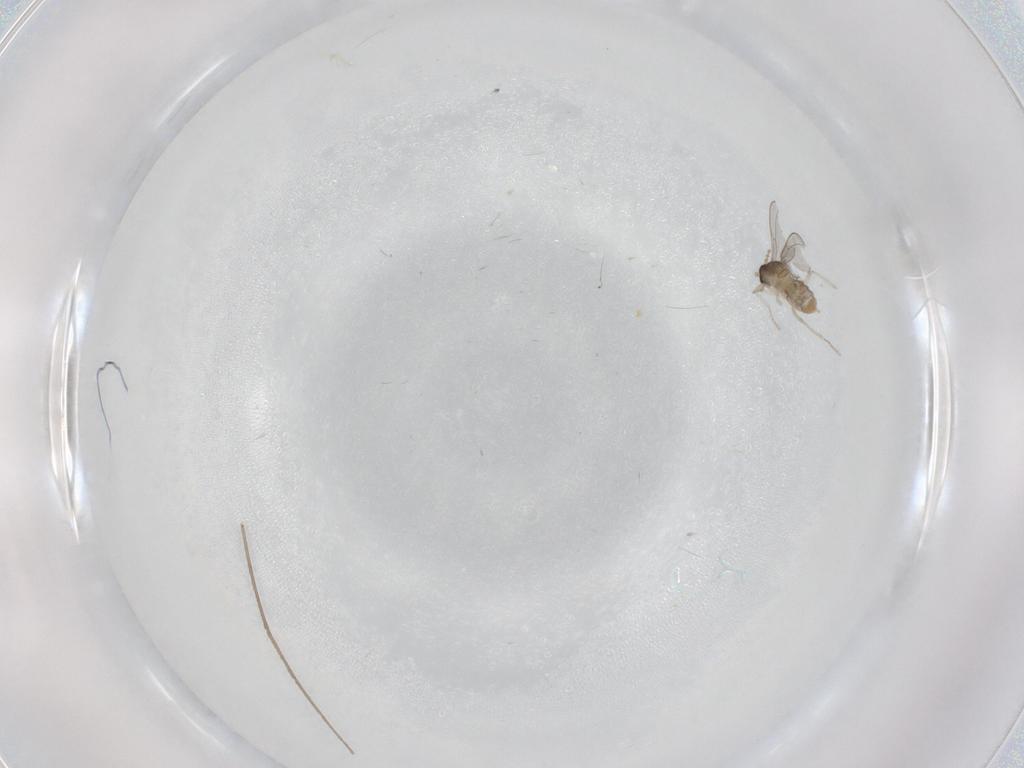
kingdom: Animalia
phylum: Arthropoda
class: Insecta
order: Diptera
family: Cecidomyiidae
